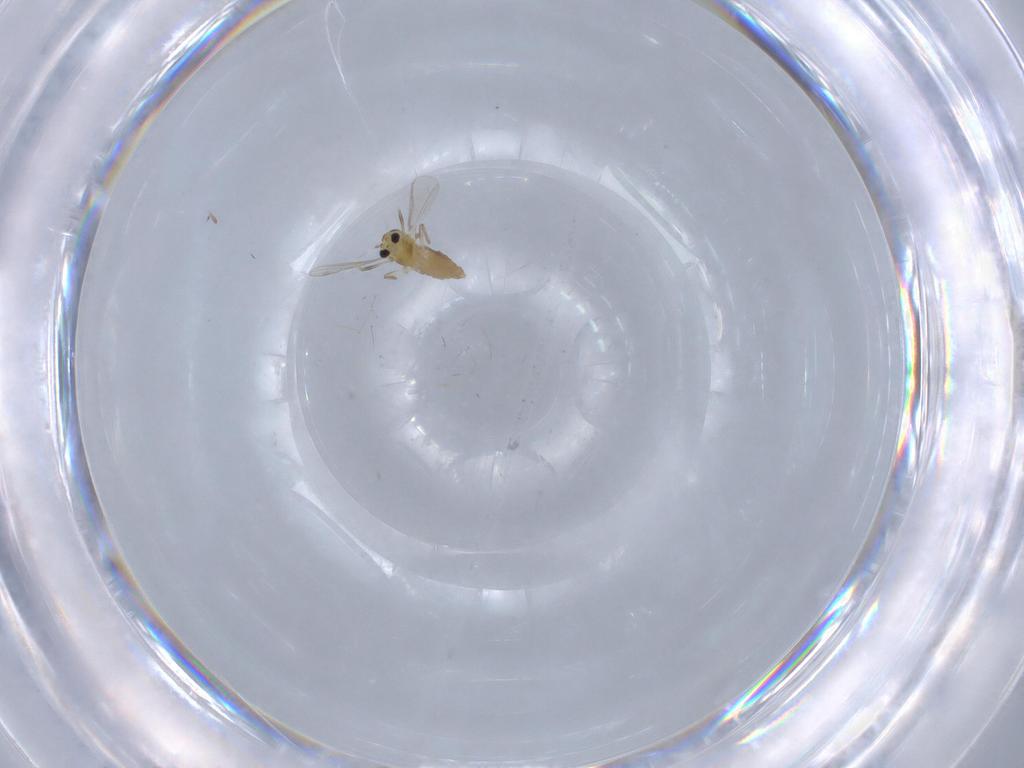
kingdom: Animalia
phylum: Arthropoda
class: Insecta
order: Diptera
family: Chironomidae
